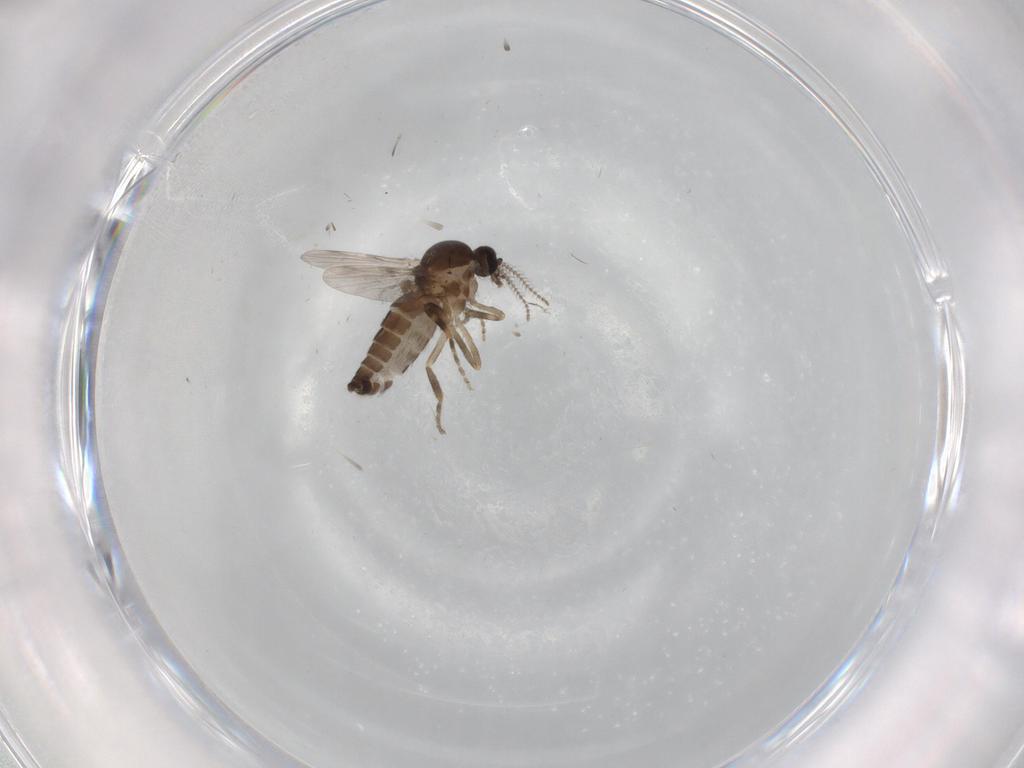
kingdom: Animalia
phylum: Arthropoda
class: Insecta
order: Diptera
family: Ceratopogonidae
